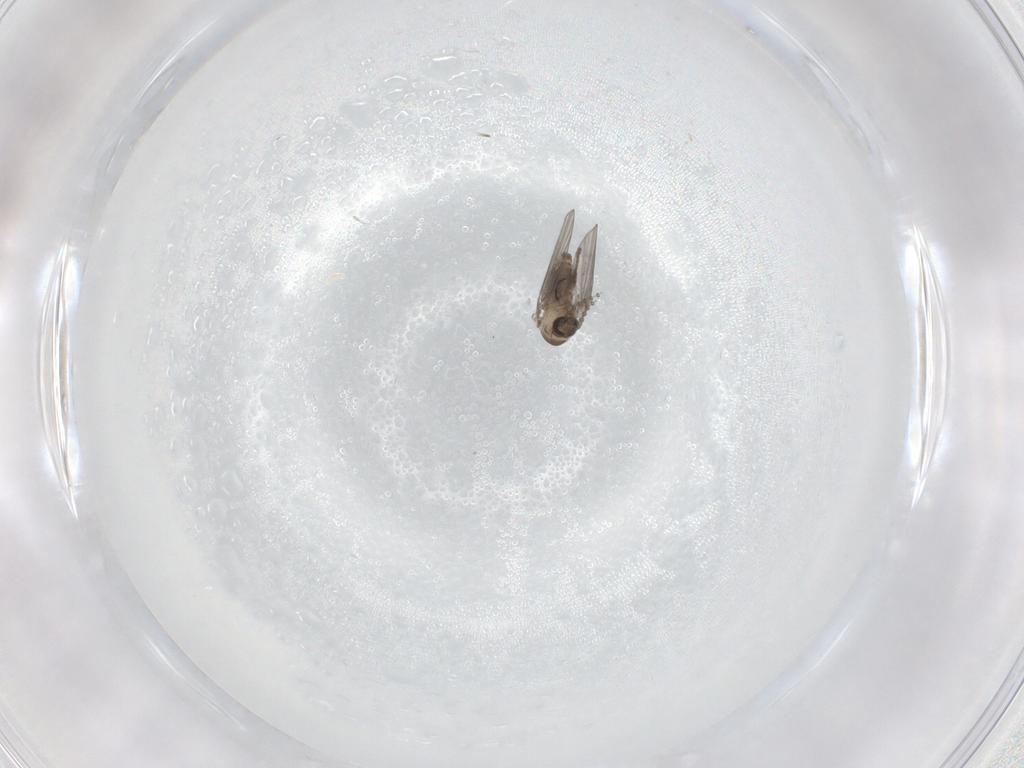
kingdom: Animalia
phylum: Arthropoda
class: Insecta
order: Diptera
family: Psychodidae
